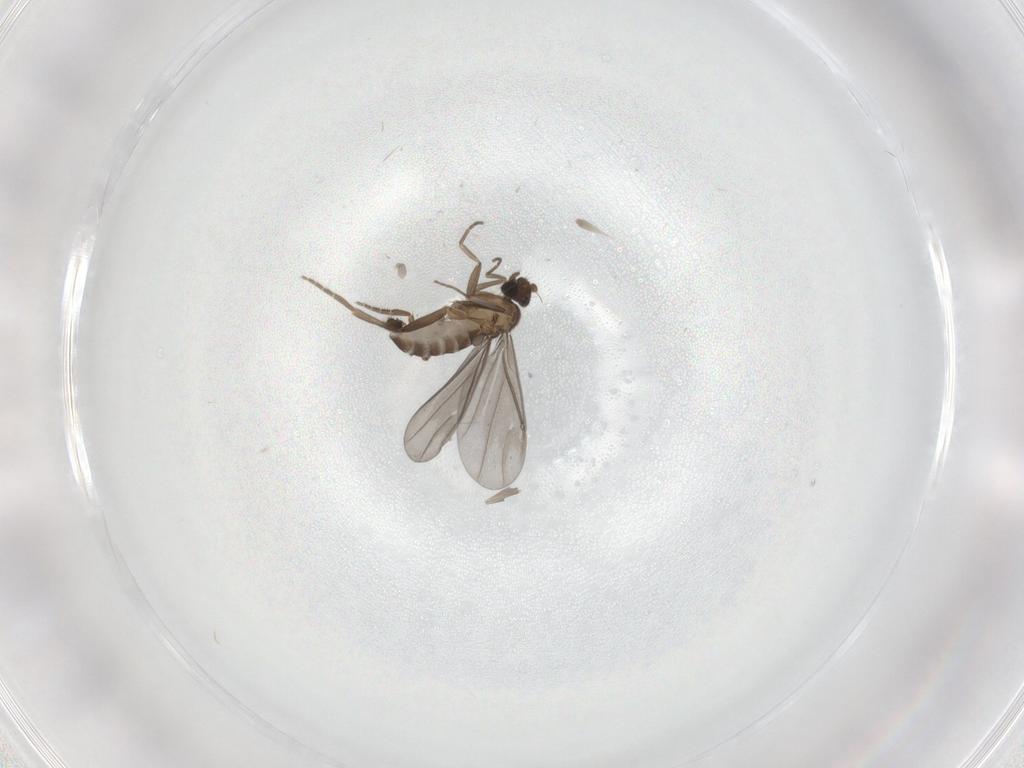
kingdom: Animalia
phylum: Arthropoda
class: Insecta
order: Diptera
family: Phoridae
